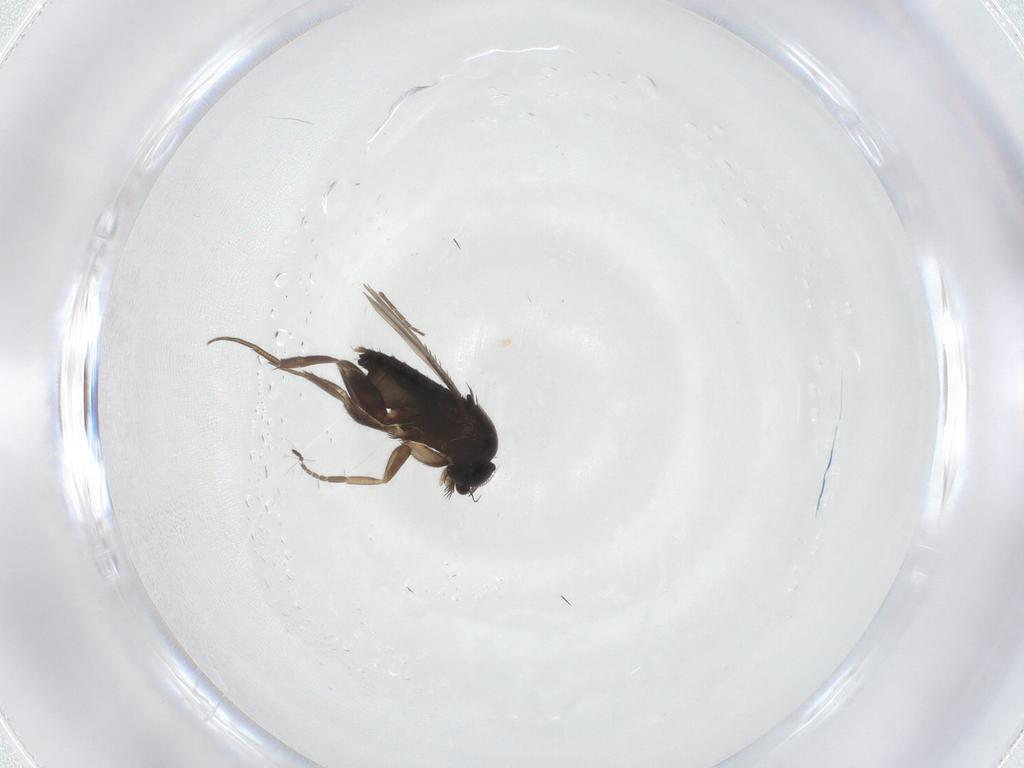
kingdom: Animalia
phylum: Arthropoda
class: Insecta
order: Diptera
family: Phoridae
